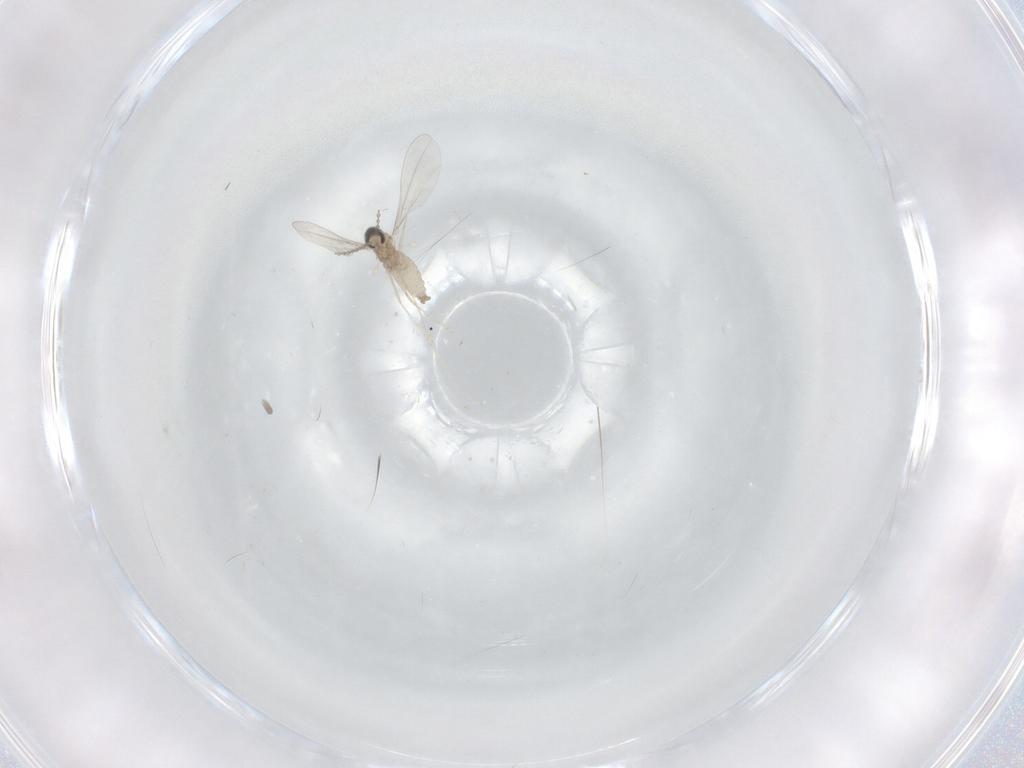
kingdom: Animalia
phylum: Arthropoda
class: Insecta
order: Diptera
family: Cecidomyiidae
